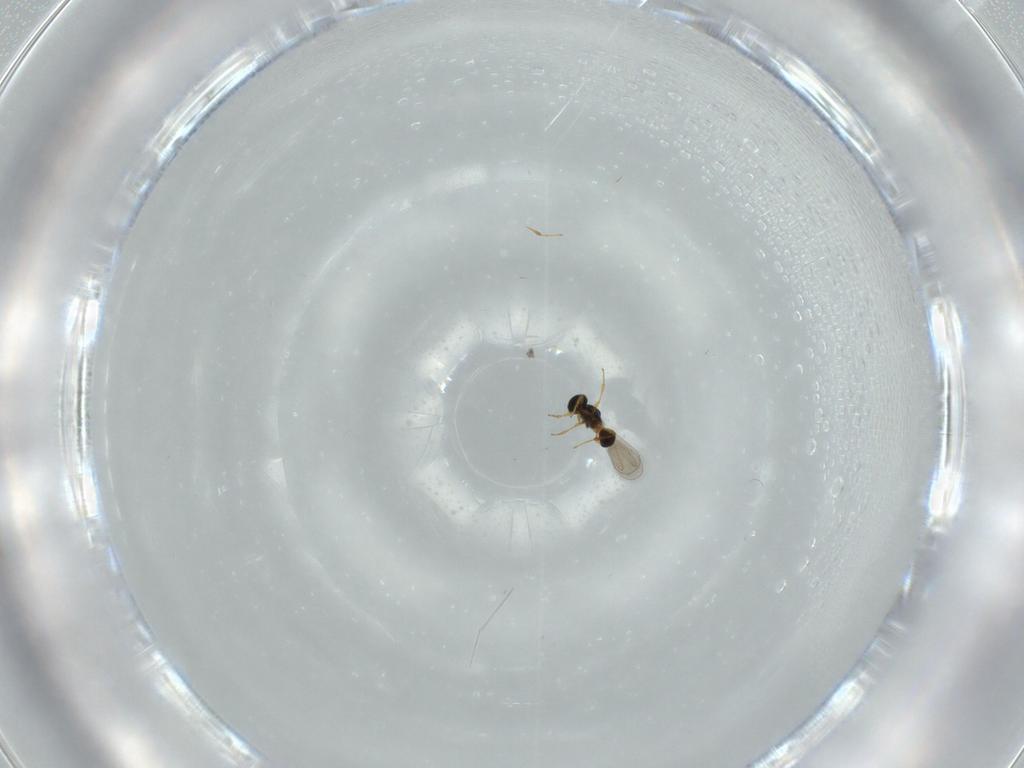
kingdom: Animalia
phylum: Arthropoda
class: Insecta
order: Hymenoptera
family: Platygastridae
